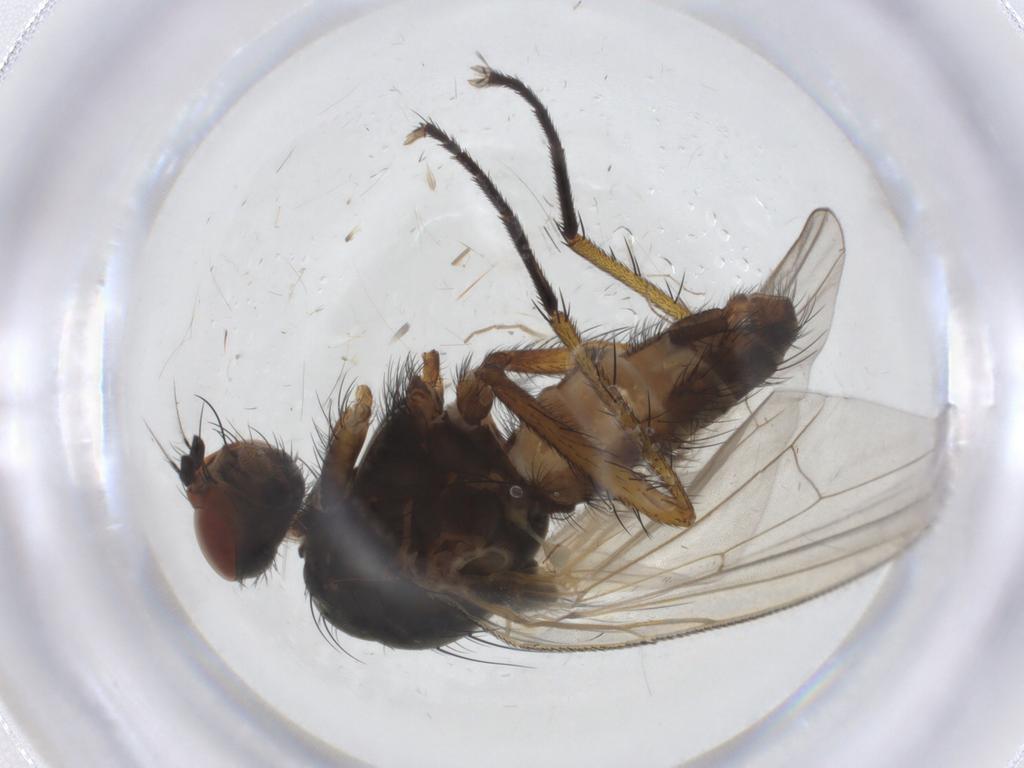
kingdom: Animalia
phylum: Arthropoda
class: Insecta
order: Diptera
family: Anthomyiidae
